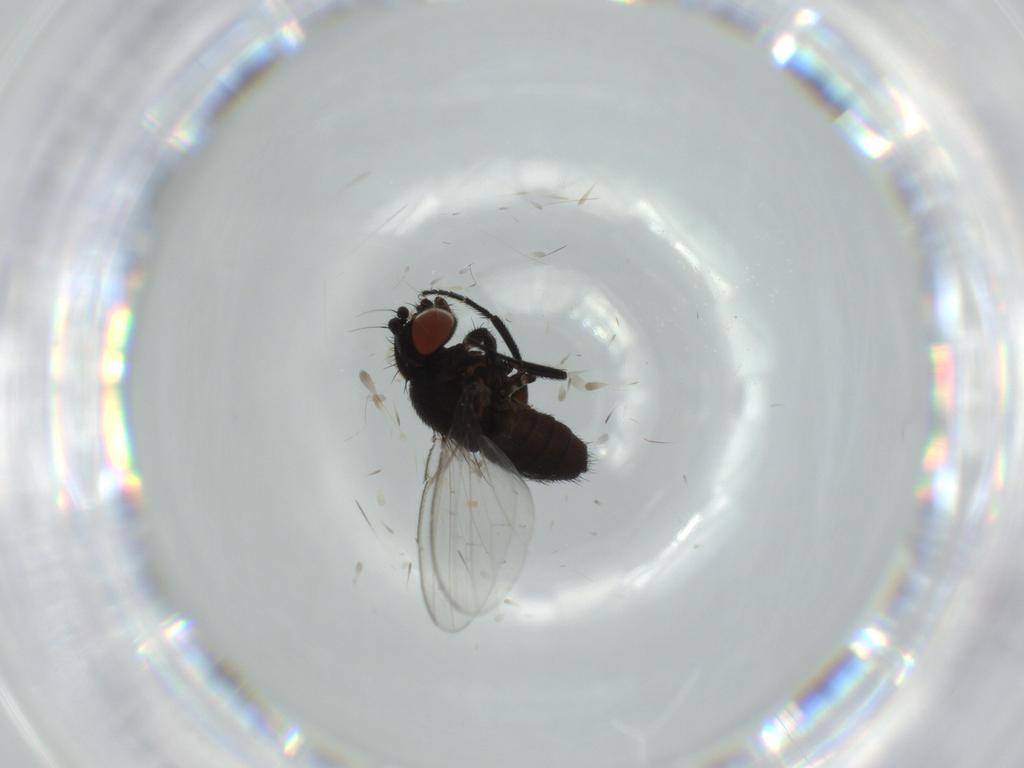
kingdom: Animalia
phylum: Arthropoda
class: Insecta
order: Diptera
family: Milichiidae
